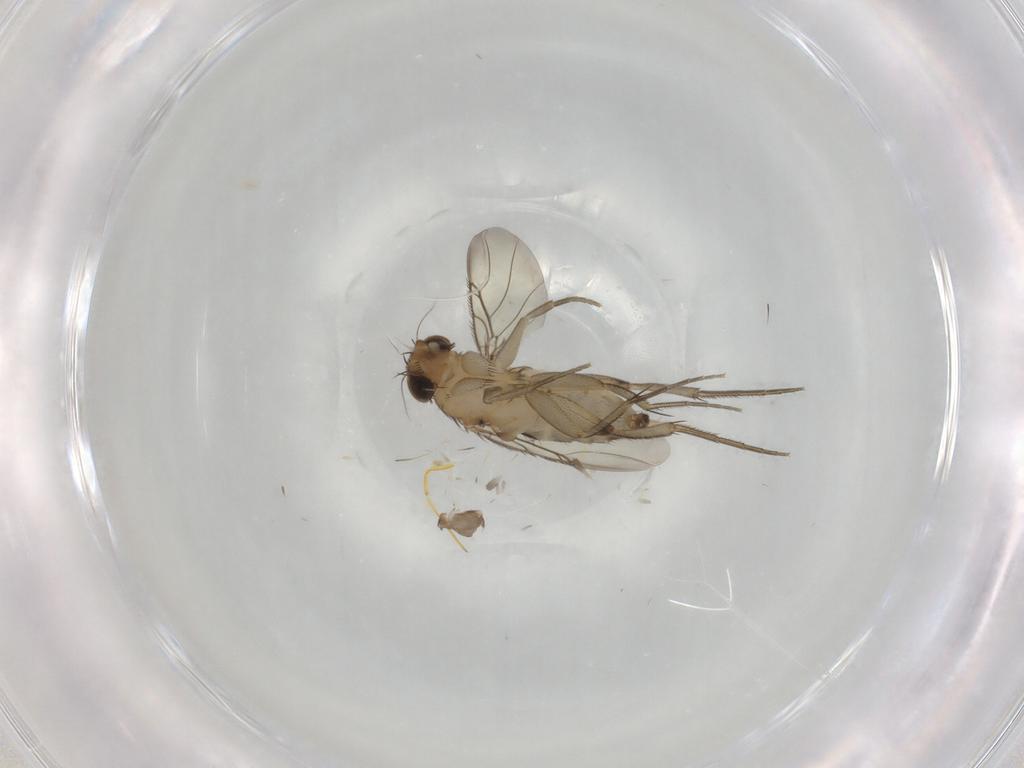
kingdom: Animalia
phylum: Arthropoda
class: Insecta
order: Diptera
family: Phoridae
